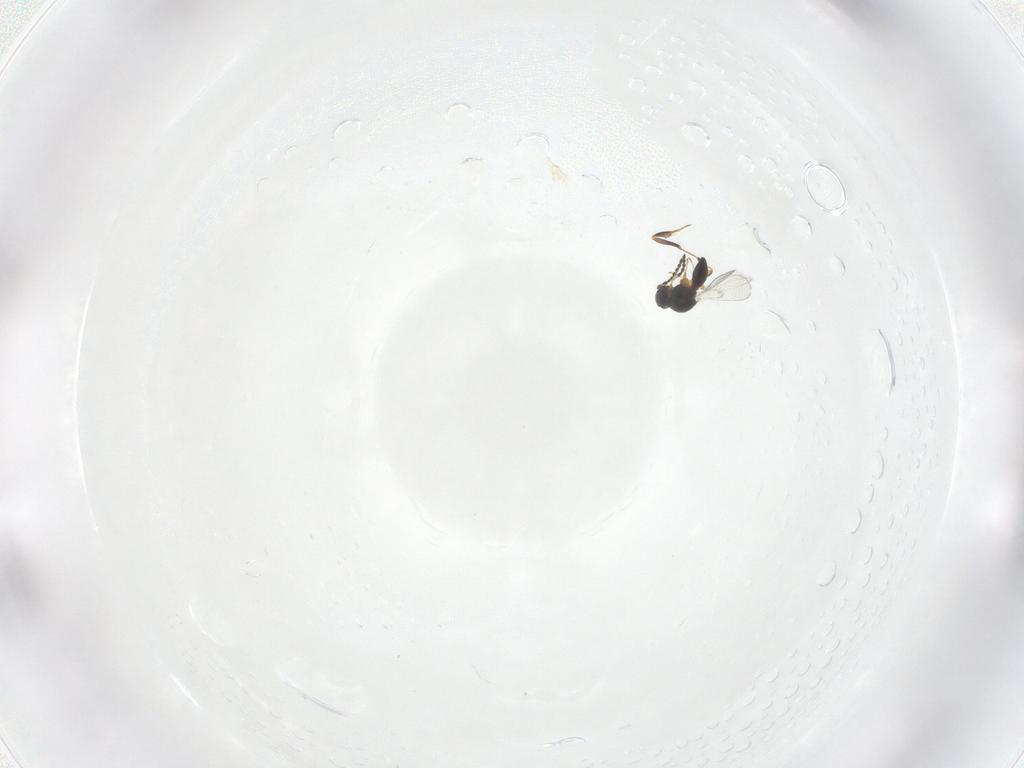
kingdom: Animalia
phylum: Arthropoda
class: Insecta
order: Hymenoptera
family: Platygastridae
